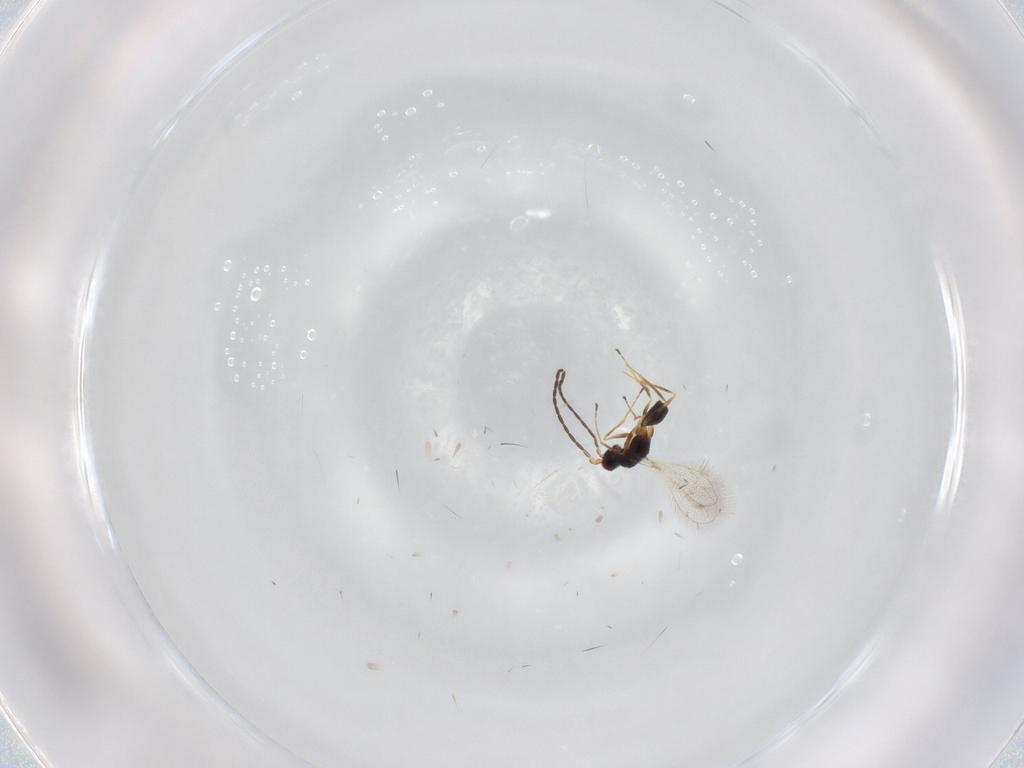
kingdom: Animalia
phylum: Arthropoda
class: Insecta
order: Hymenoptera
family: Mymaridae
